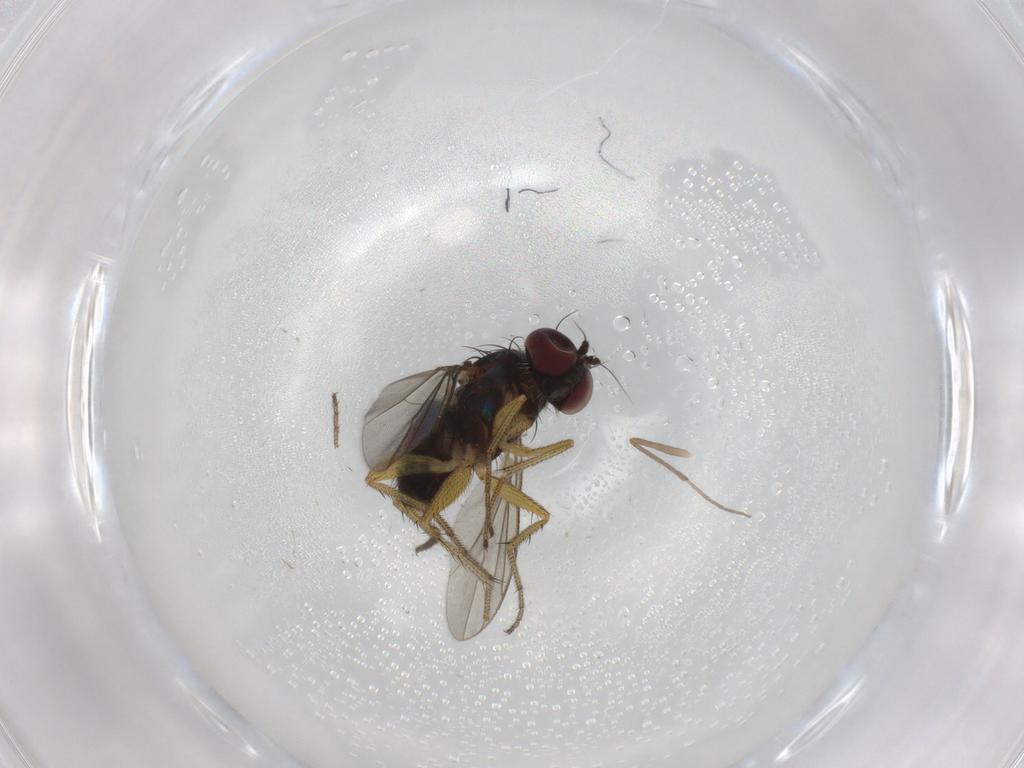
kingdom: Animalia
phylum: Arthropoda
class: Insecta
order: Diptera
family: Chironomidae
